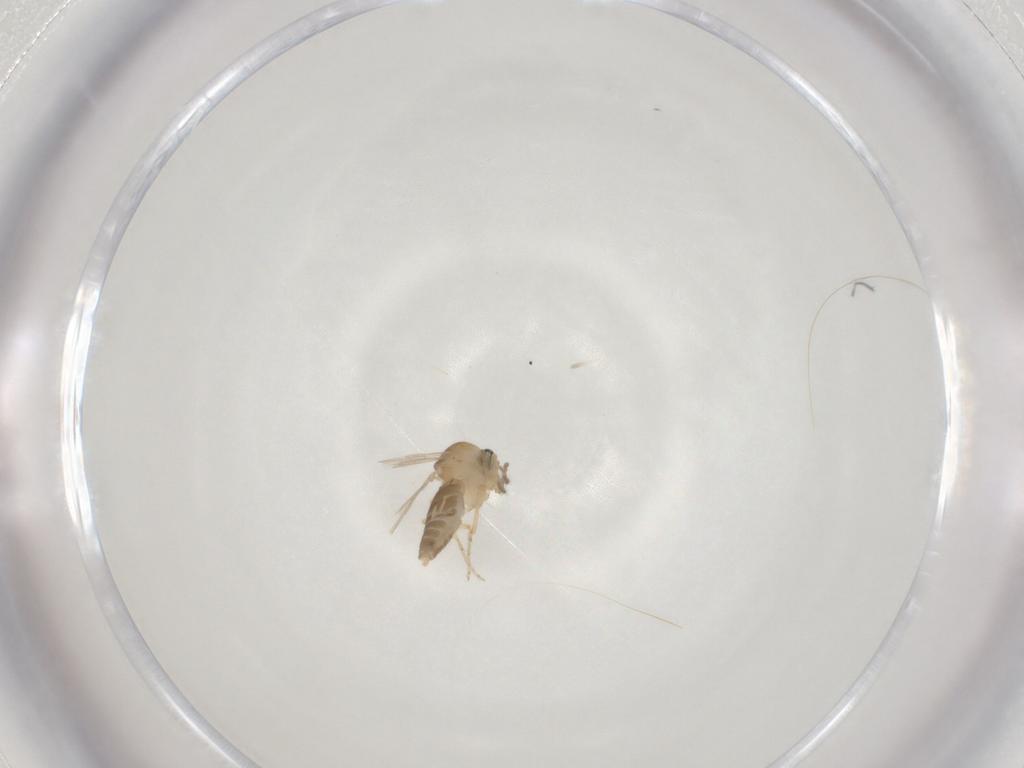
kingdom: Animalia
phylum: Arthropoda
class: Insecta
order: Diptera
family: Ceratopogonidae
